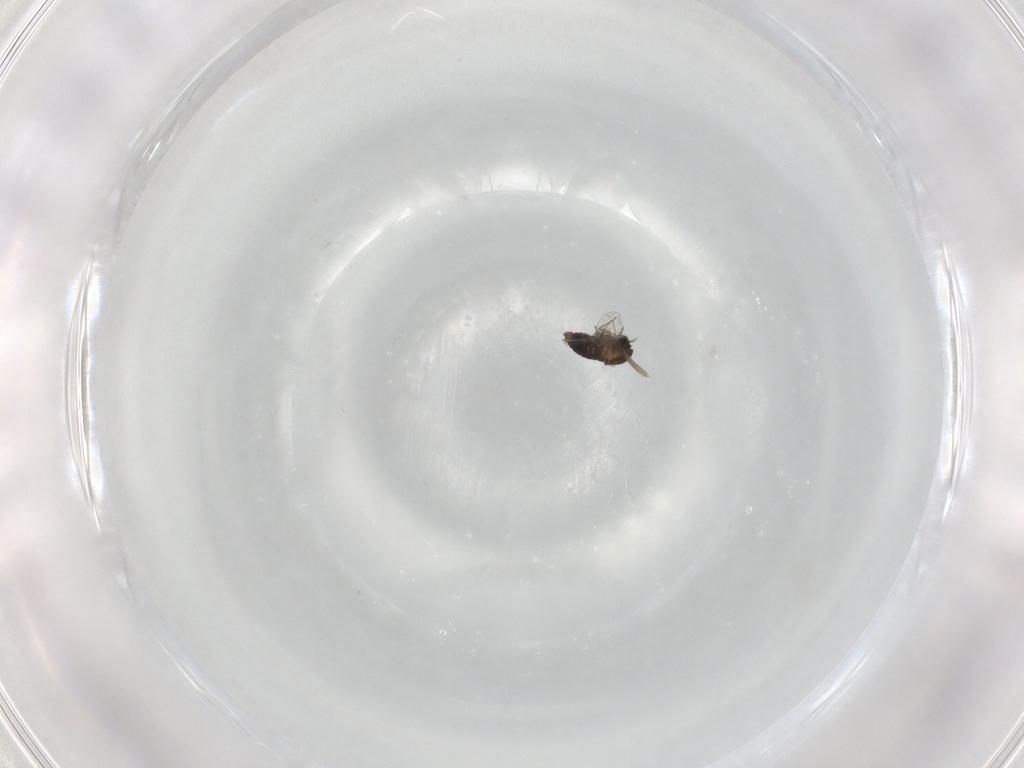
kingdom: Animalia
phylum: Arthropoda
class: Insecta
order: Diptera
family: Chironomidae
